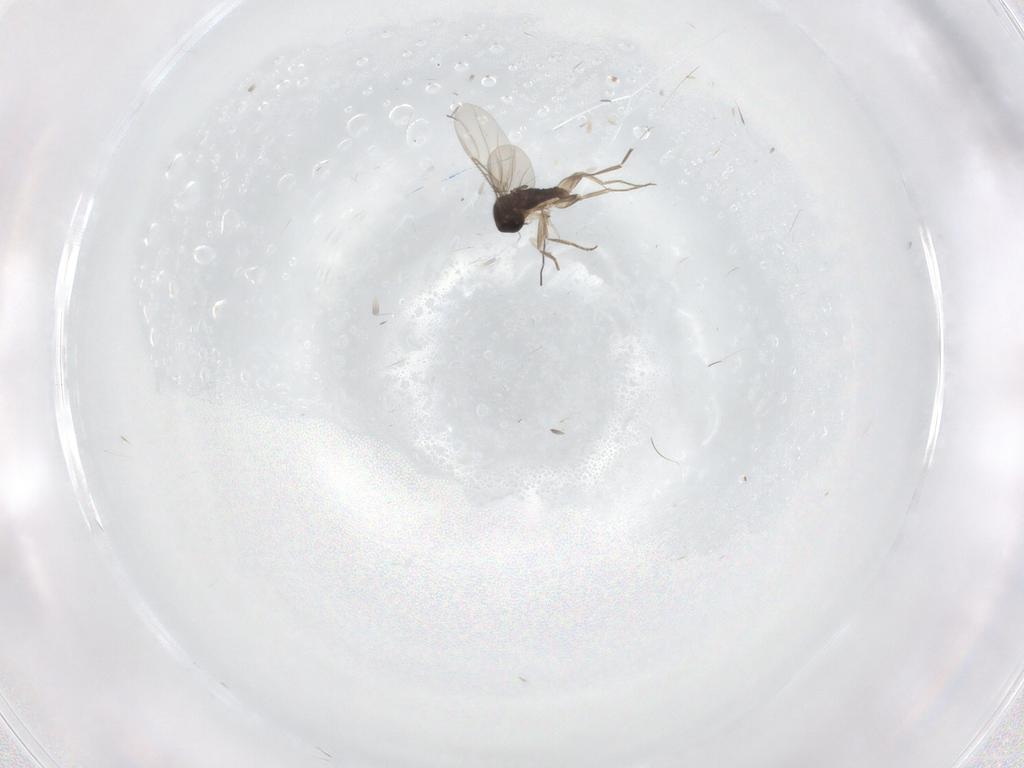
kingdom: Animalia
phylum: Arthropoda
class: Insecta
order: Diptera
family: Phoridae
